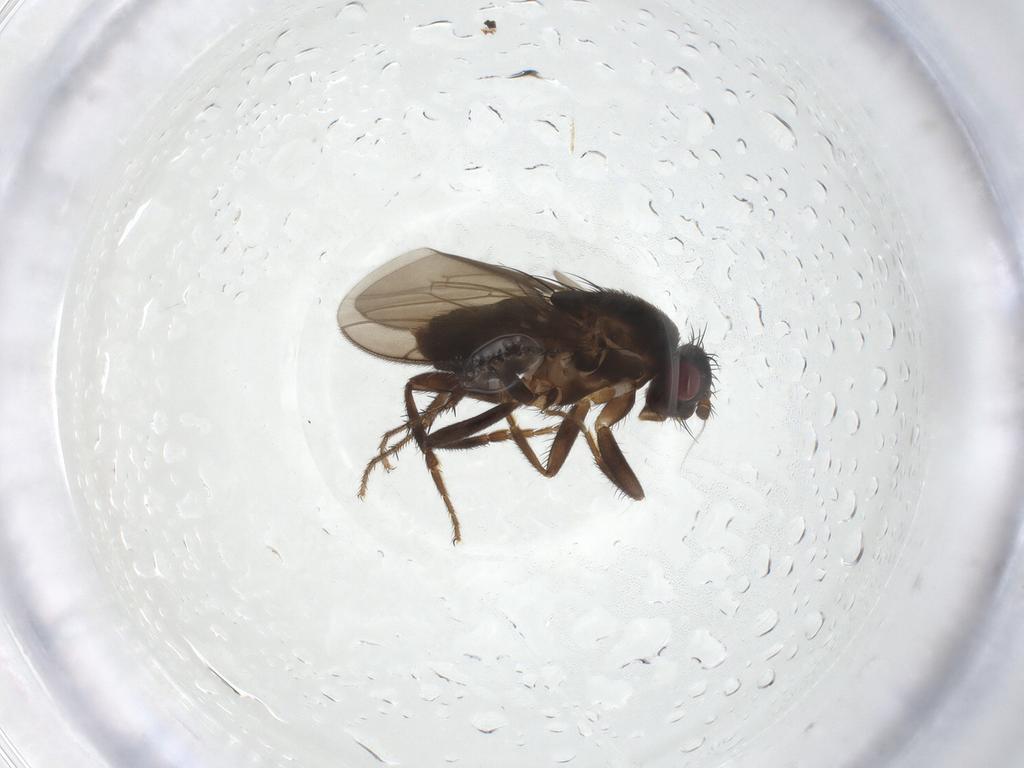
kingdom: Animalia
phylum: Arthropoda
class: Insecta
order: Diptera
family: Sphaeroceridae
